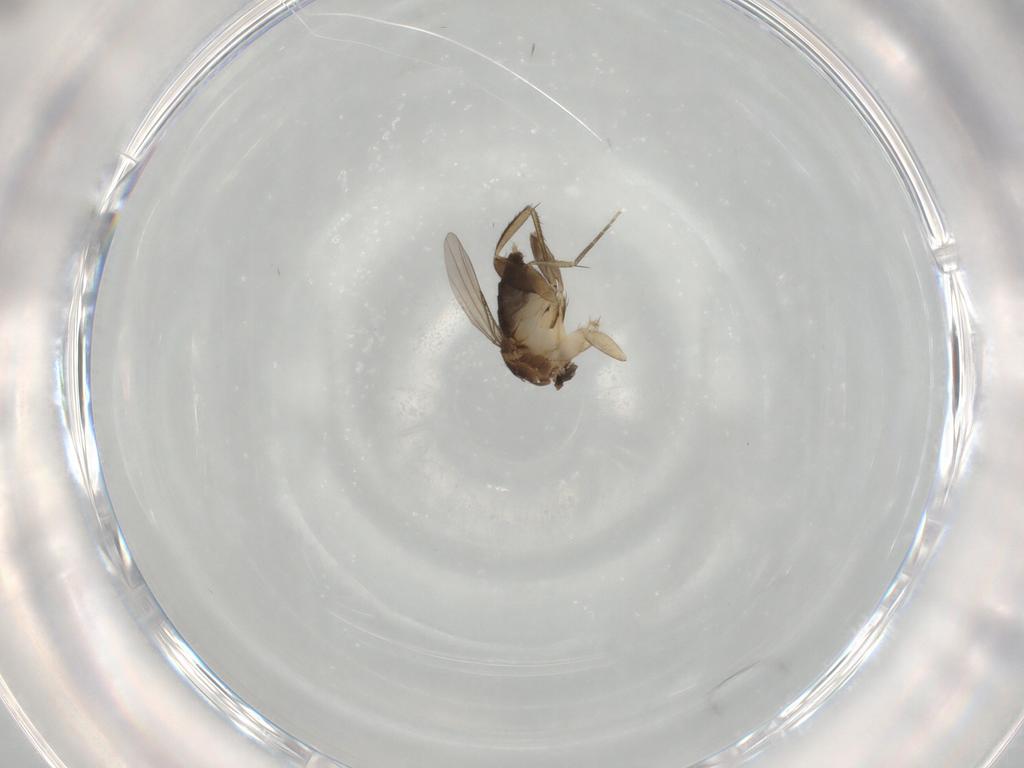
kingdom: Animalia
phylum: Arthropoda
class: Insecta
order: Diptera
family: Phoridae
